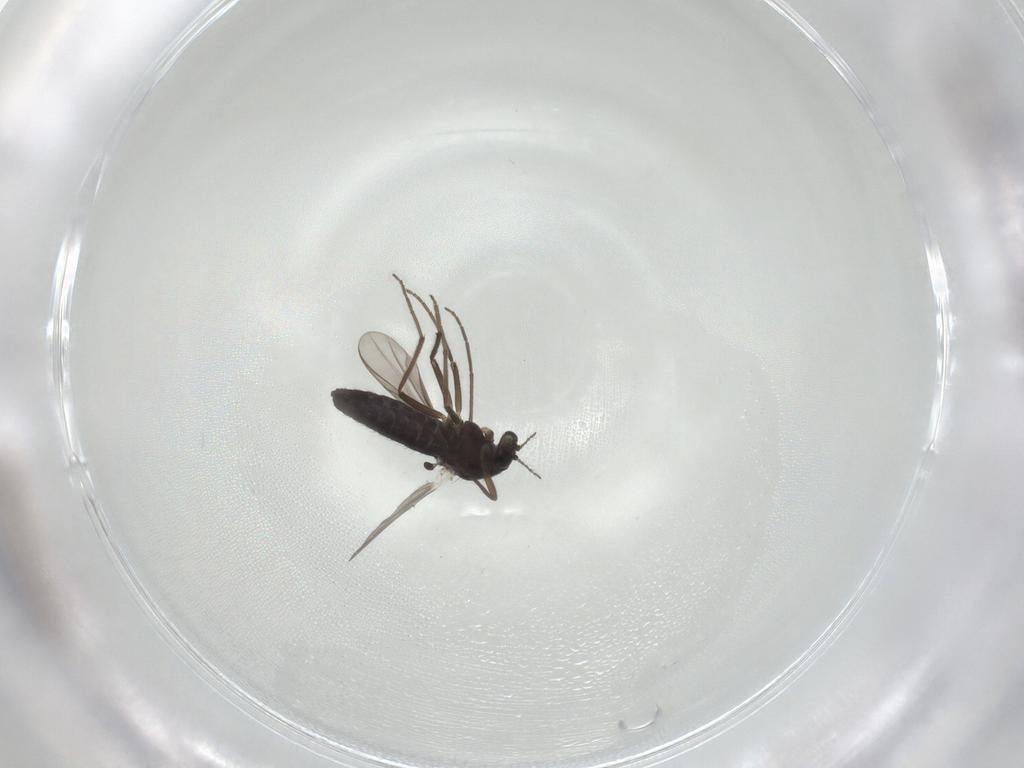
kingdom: Animalia
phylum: Arthropoda
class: Insecta
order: Diptera
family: Chironomidae
